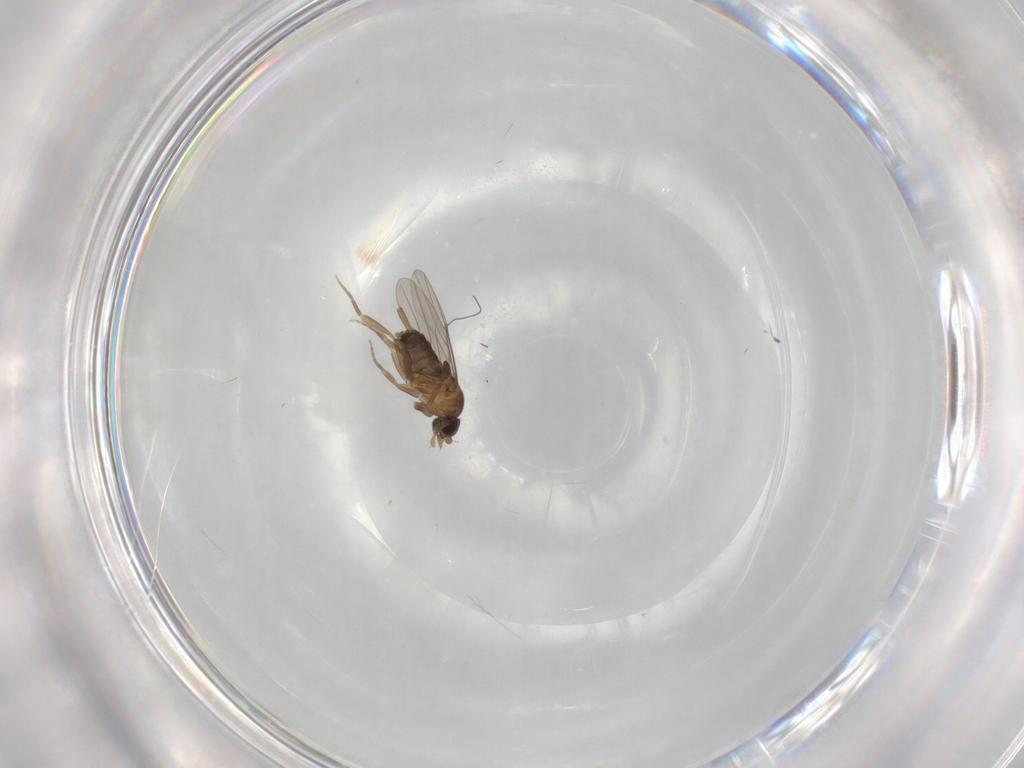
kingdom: Animalia
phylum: Arthropoda
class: Insecta
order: Diptera
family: Phoridae
